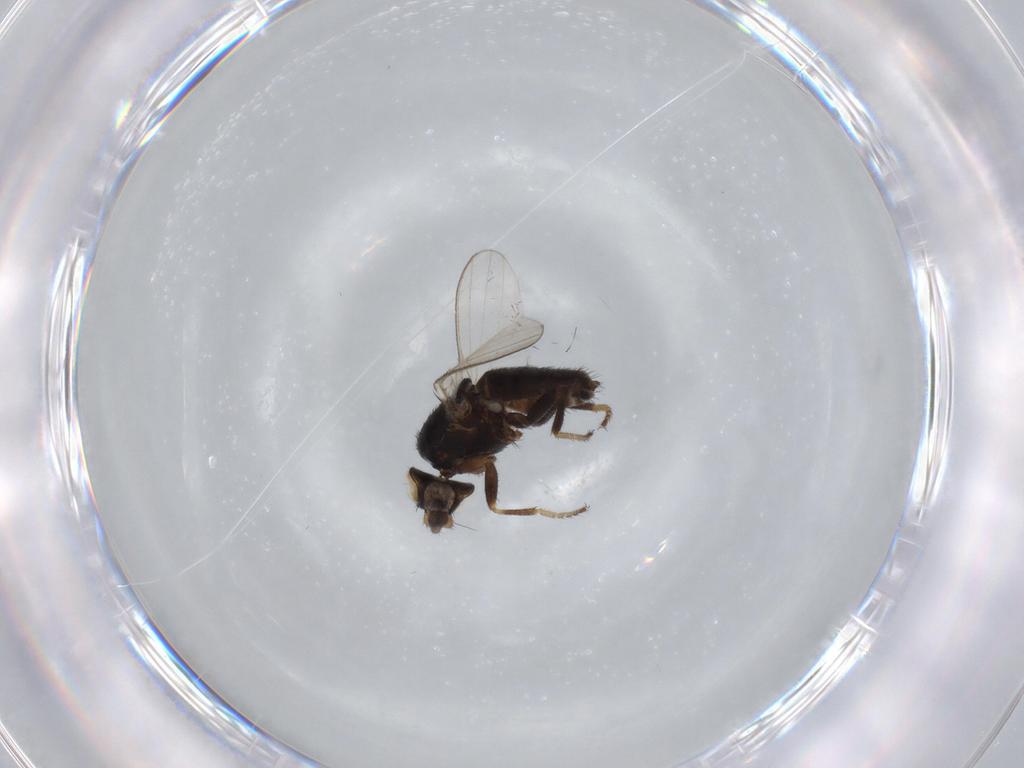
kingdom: Animalia
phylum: Arthropoda
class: Insecta
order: Diptera
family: Milichiidae
